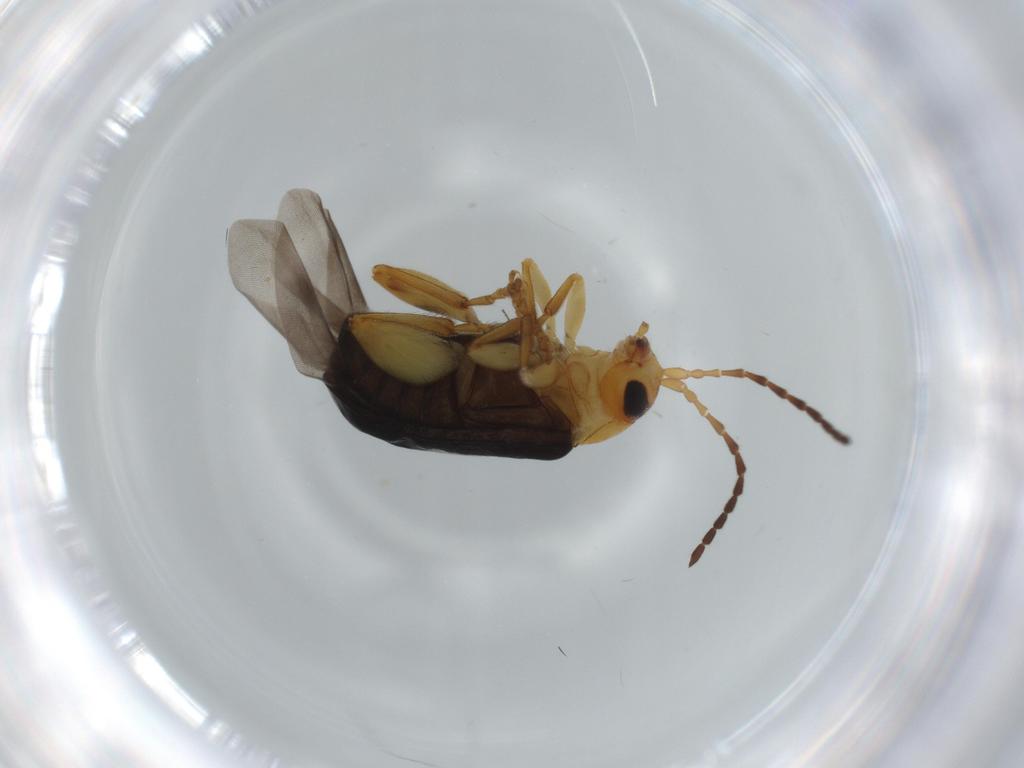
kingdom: Animalia
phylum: Arthropoda
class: Insecta
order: Coleoptera
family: Chrysomelidae
